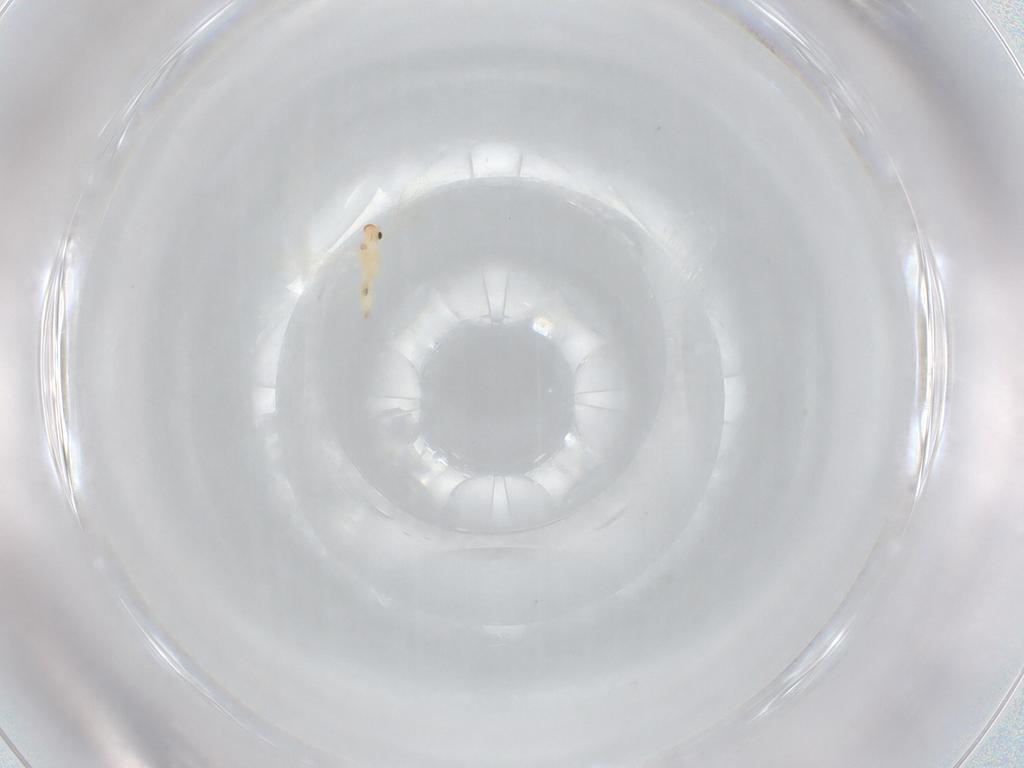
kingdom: Animalia
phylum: Arthropoda
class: Insecta
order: Diptera
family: Cecidomyiidae
